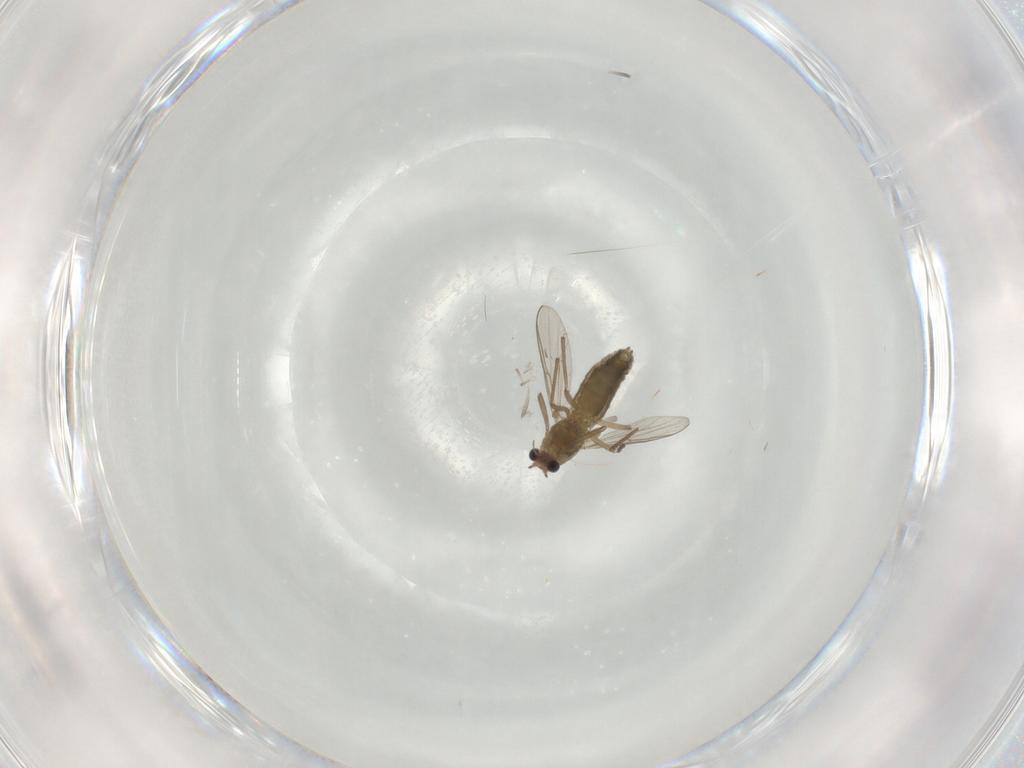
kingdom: Animalia
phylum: Arthropoda
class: Insecta
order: Diptera
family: Chironomidae
